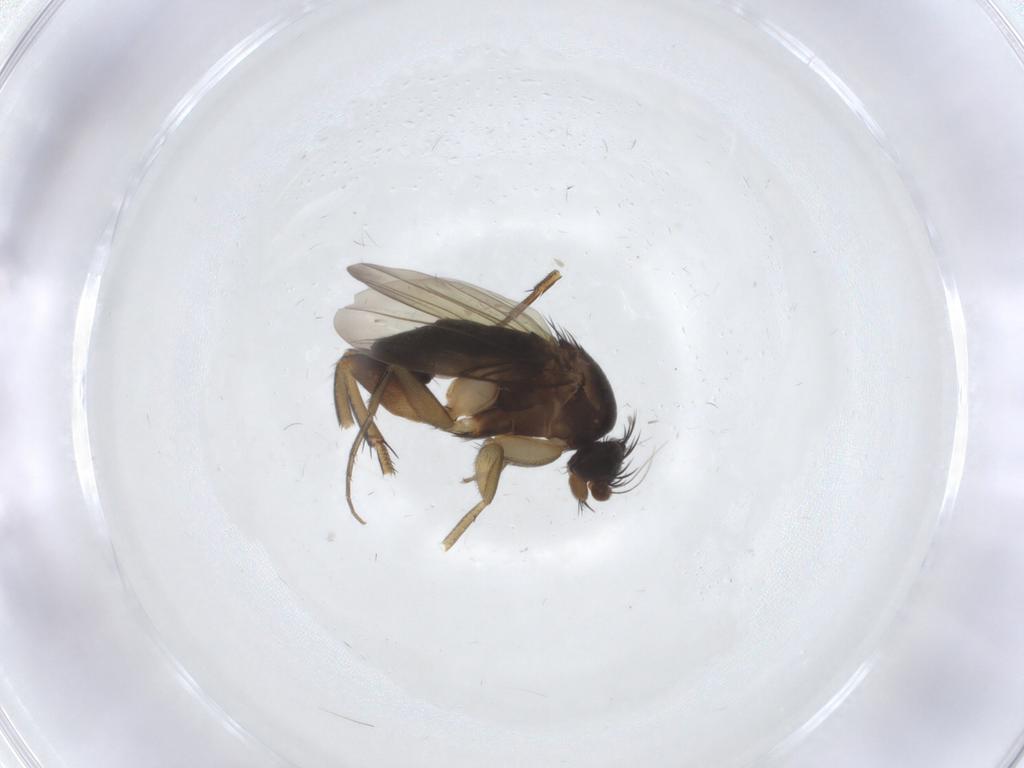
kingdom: Animalia
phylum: Arthropoda
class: Insecta
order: Diptera
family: Phoridae
